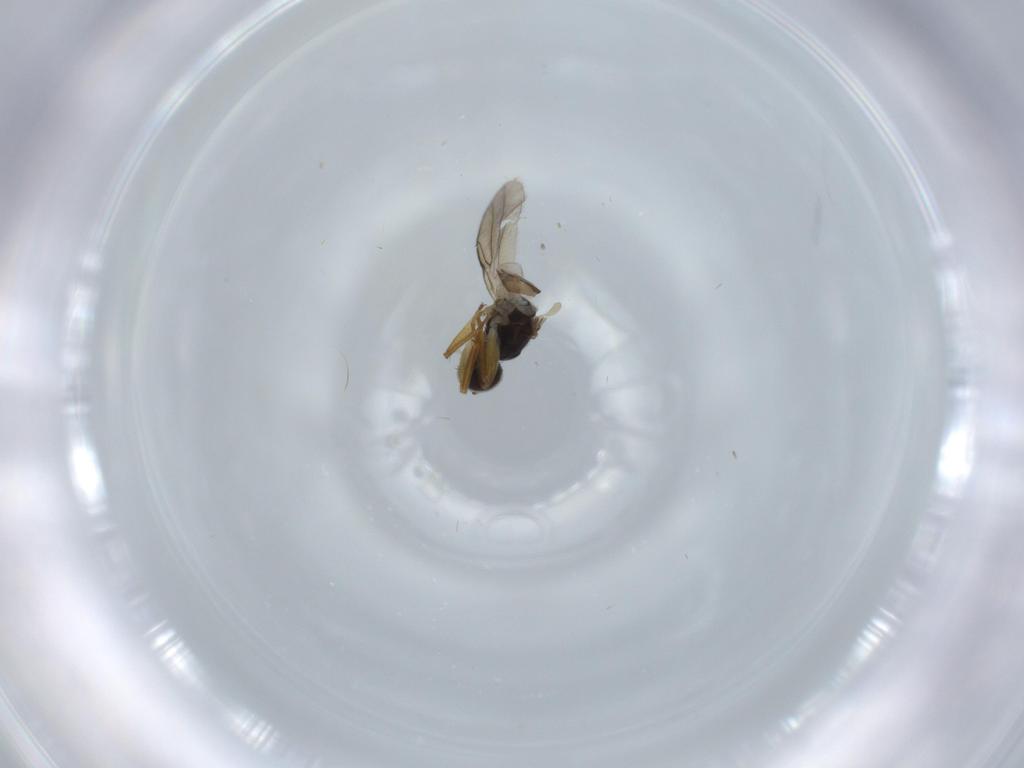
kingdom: Animalia
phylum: Arthropoda
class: Insecta
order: Diptera
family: Hybotidae
